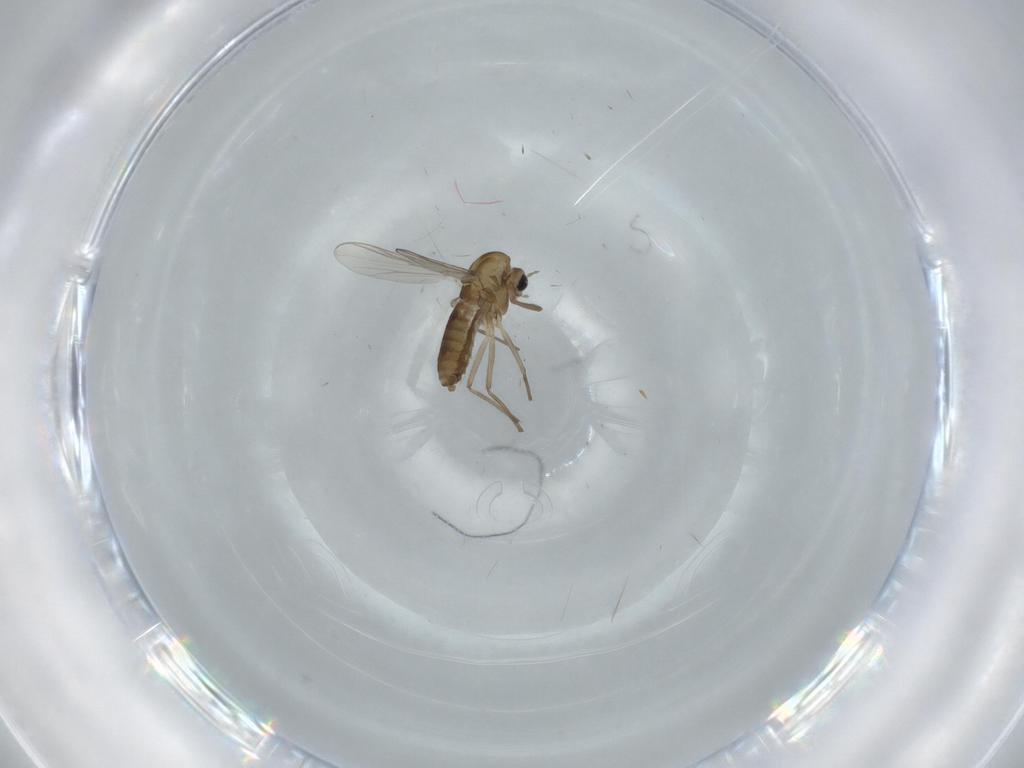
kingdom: Animalia
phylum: Arthropoda
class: Insecta
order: Diptera
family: Chironomidae
